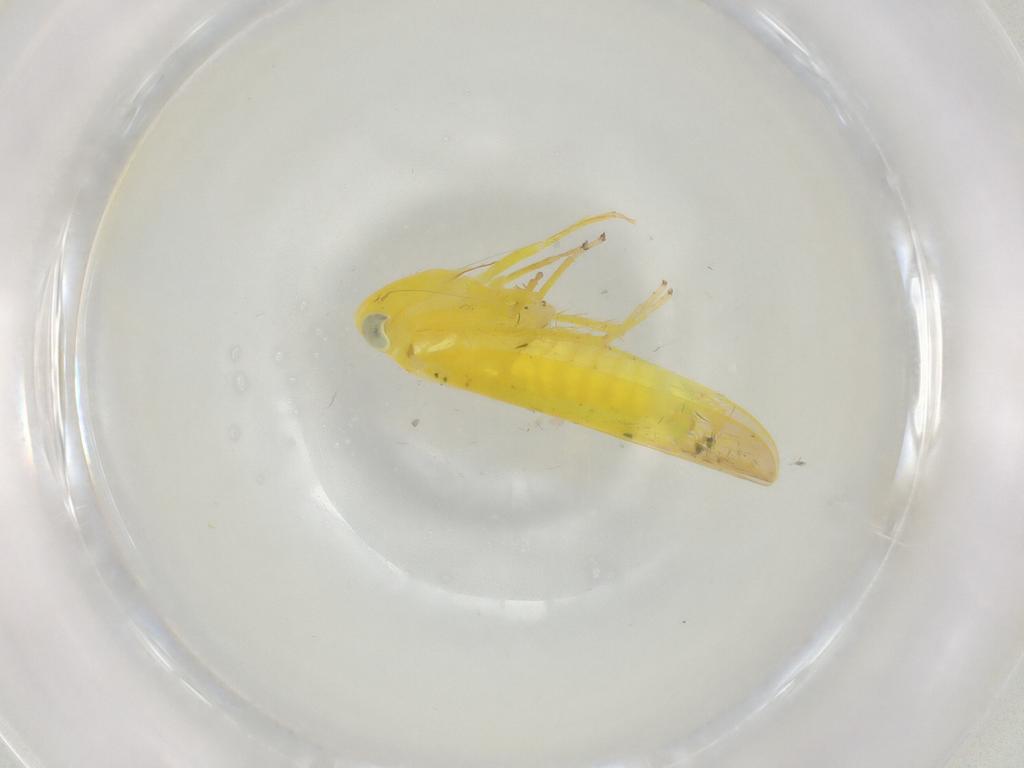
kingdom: Animalia
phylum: Arthropoda
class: Insecta
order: Hemiptera
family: Cicadellidae
